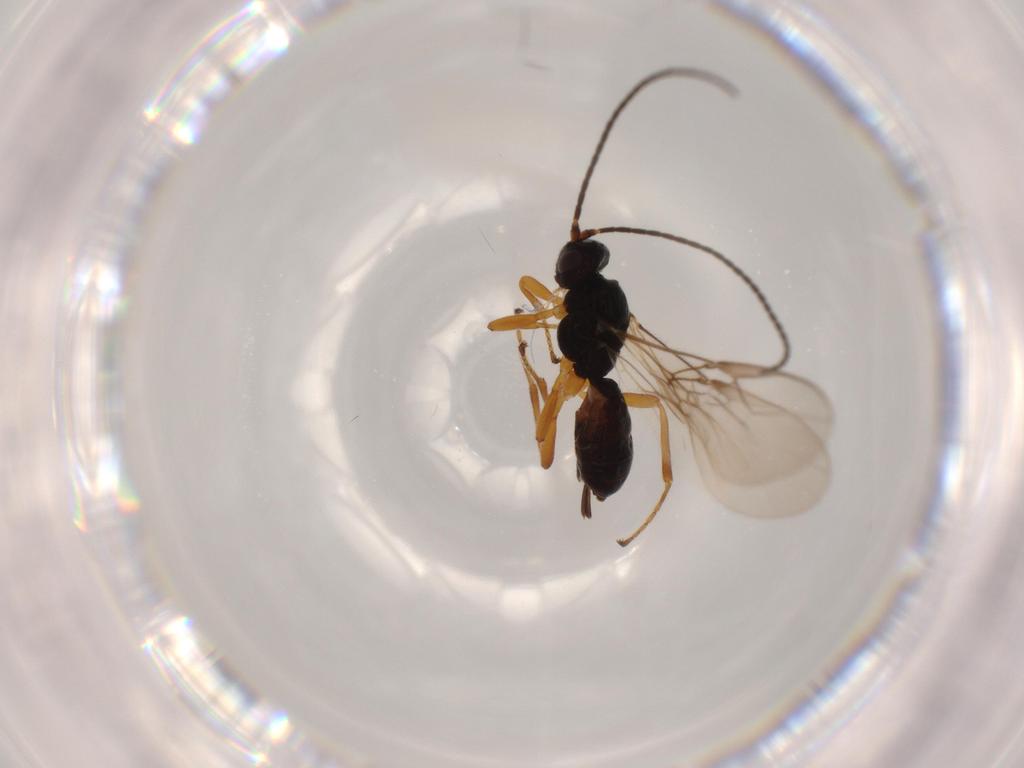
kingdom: Animalia
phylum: Arthropoda
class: Insecta
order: Hymenoptera
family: Braconidae
